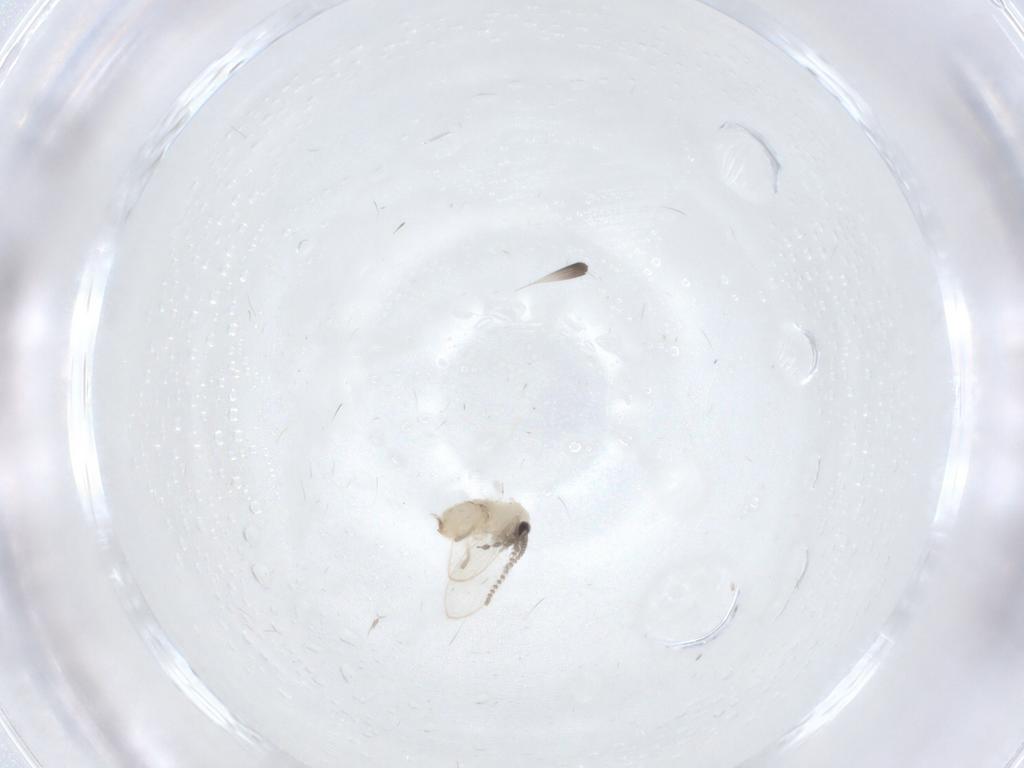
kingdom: Animalia
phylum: Arthropoda
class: Insecta
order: Diptera
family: Psychodidae
